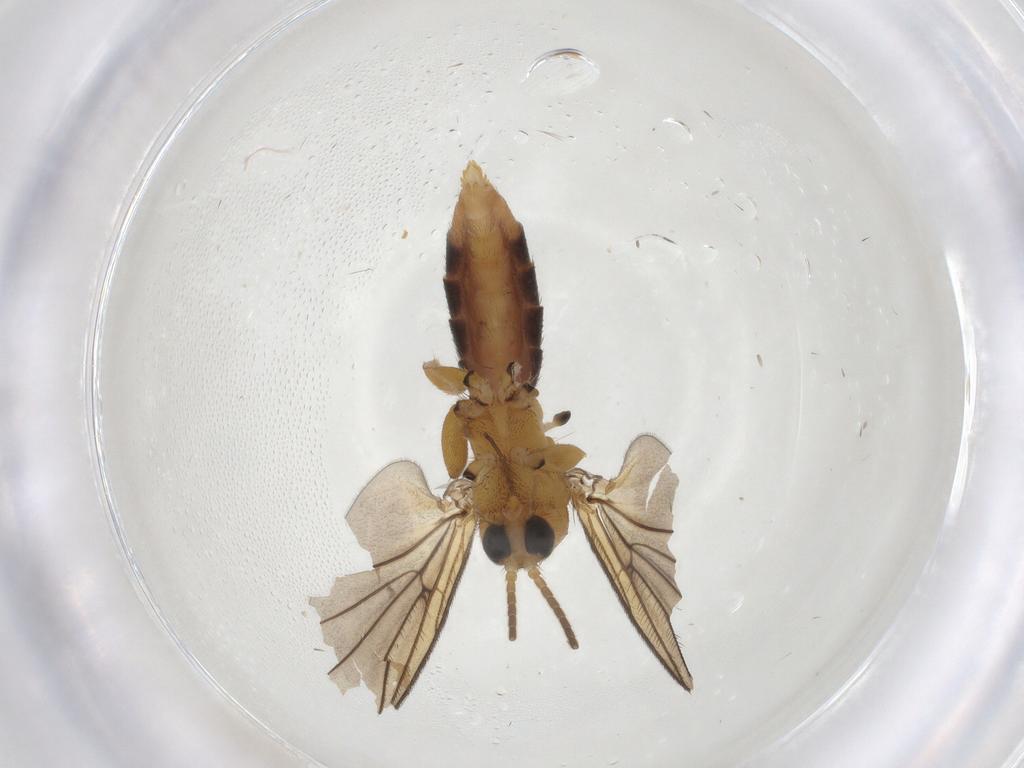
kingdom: Animalia
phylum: Arthropoda
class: Insecta
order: Diptera
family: Mycetophilidae
